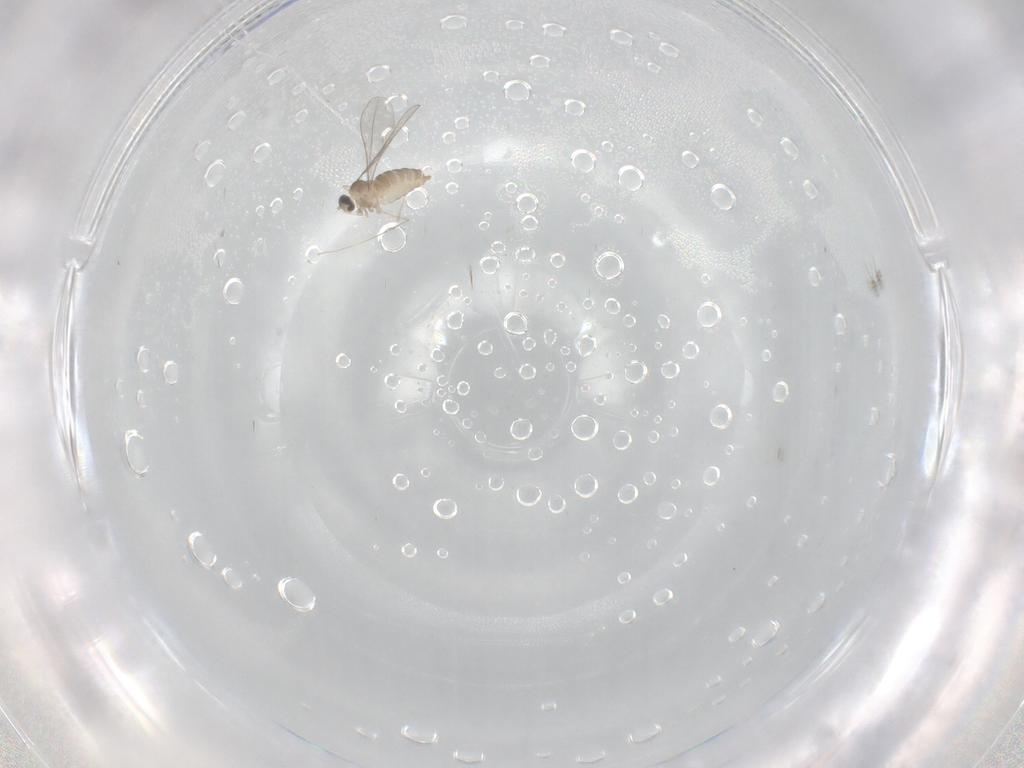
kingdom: Animalia
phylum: Arthropoda
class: Insecta
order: Diptera
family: Cecidomyiidae
